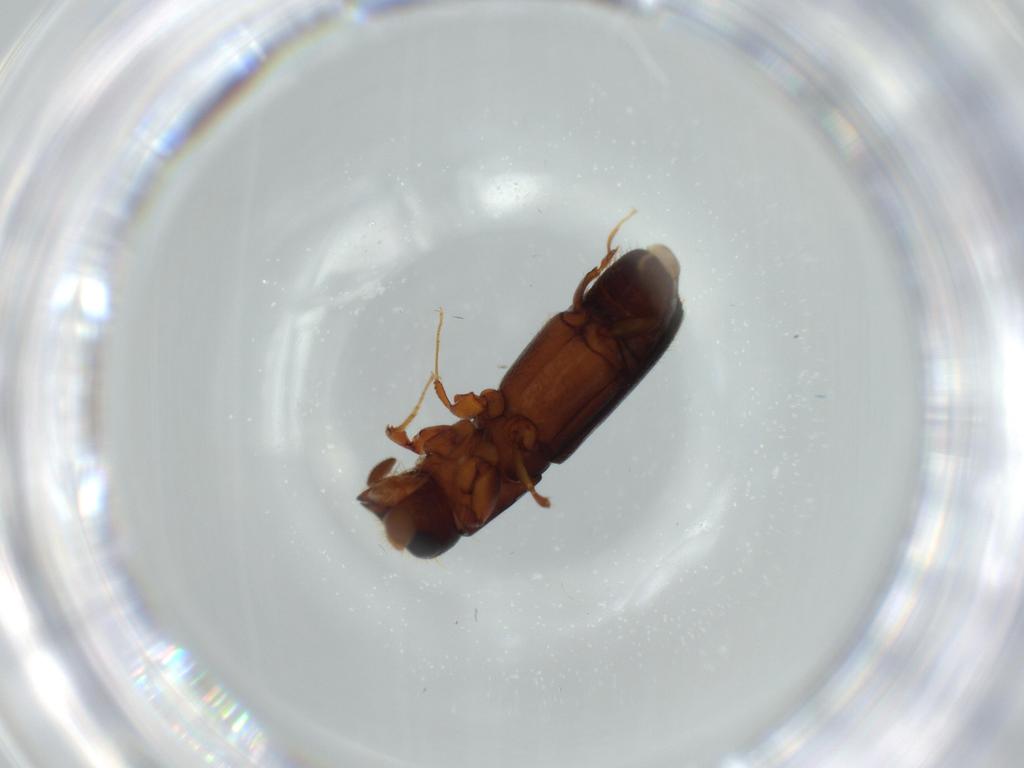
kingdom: Animalia
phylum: Arthropoda
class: Insecta
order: Coleoptera
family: Curculionidae
